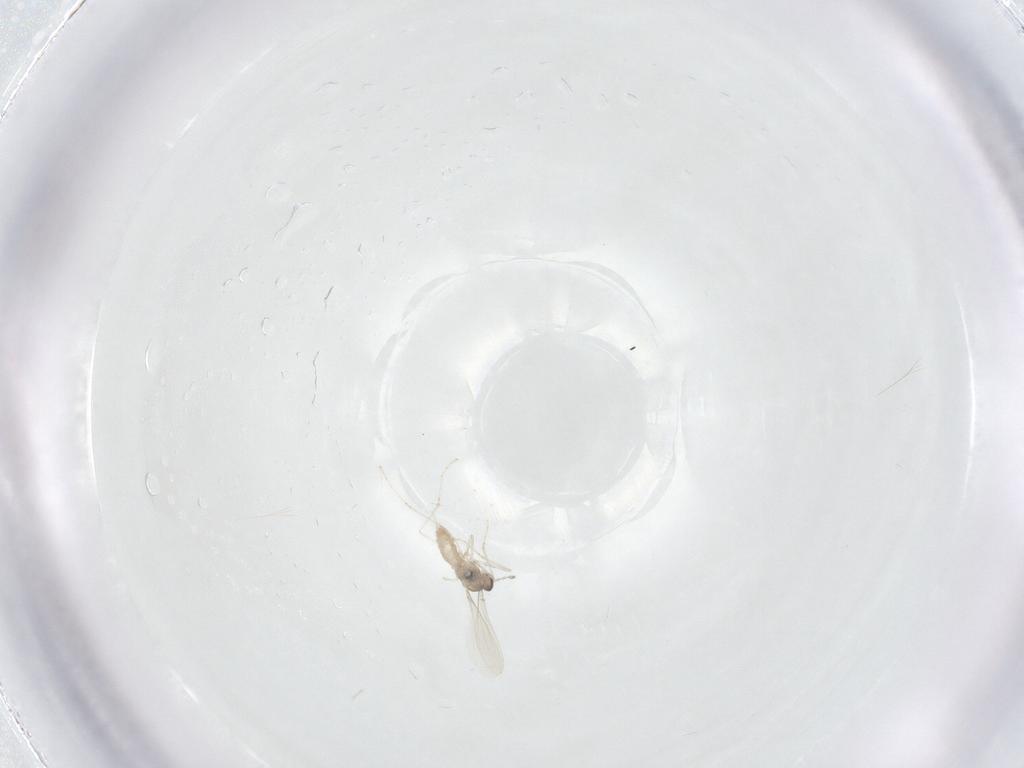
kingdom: Animalia
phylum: Arthropoda
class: Insecta
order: Diptera
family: Cecidomyiidae
